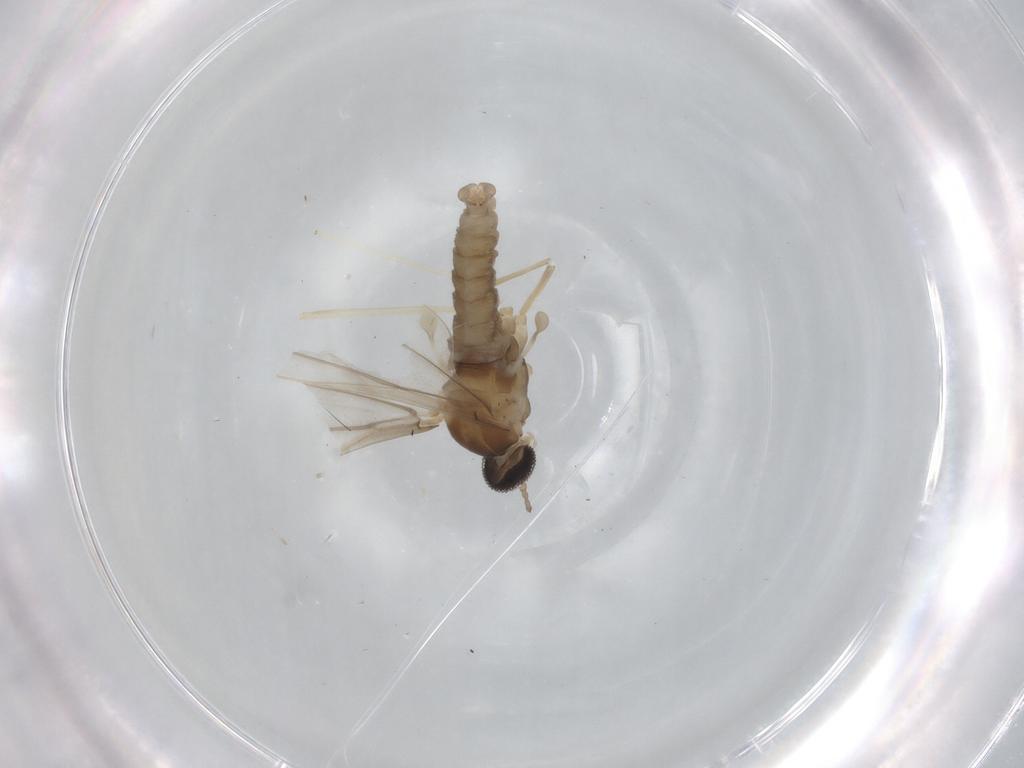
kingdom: Animalia
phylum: Arthropoda
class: Insecta
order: Diptera
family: Cecidomyiidae
